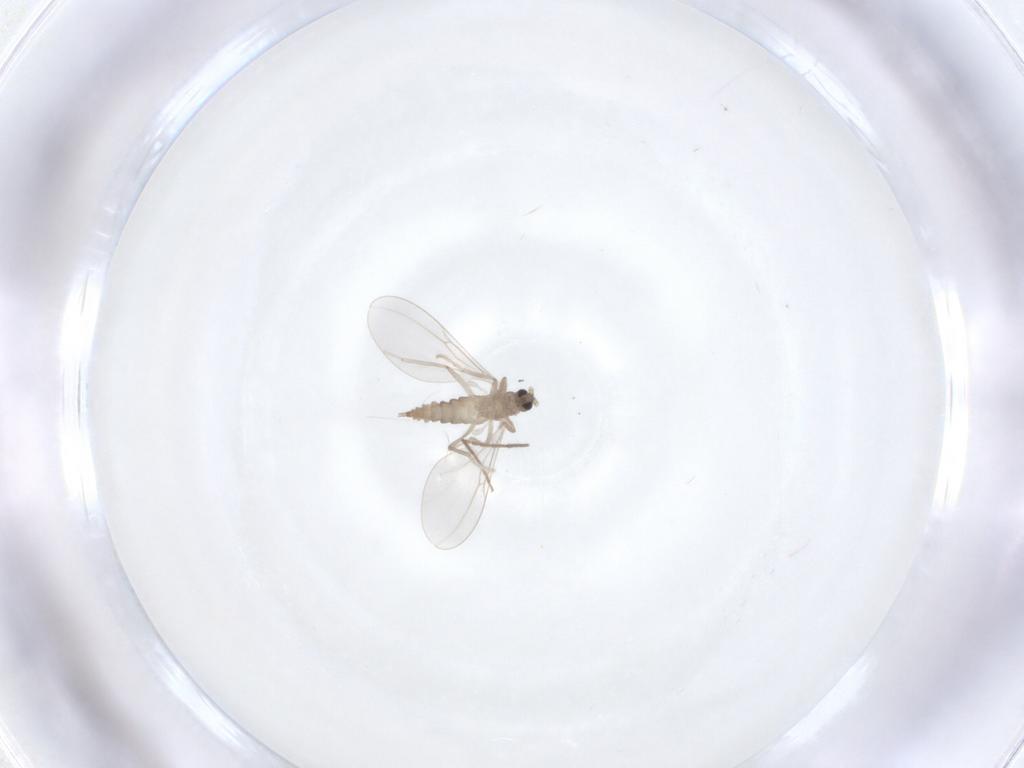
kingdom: Animalia
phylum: Arthropoda
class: Insecta
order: Diptera
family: Cecidomyiidae
